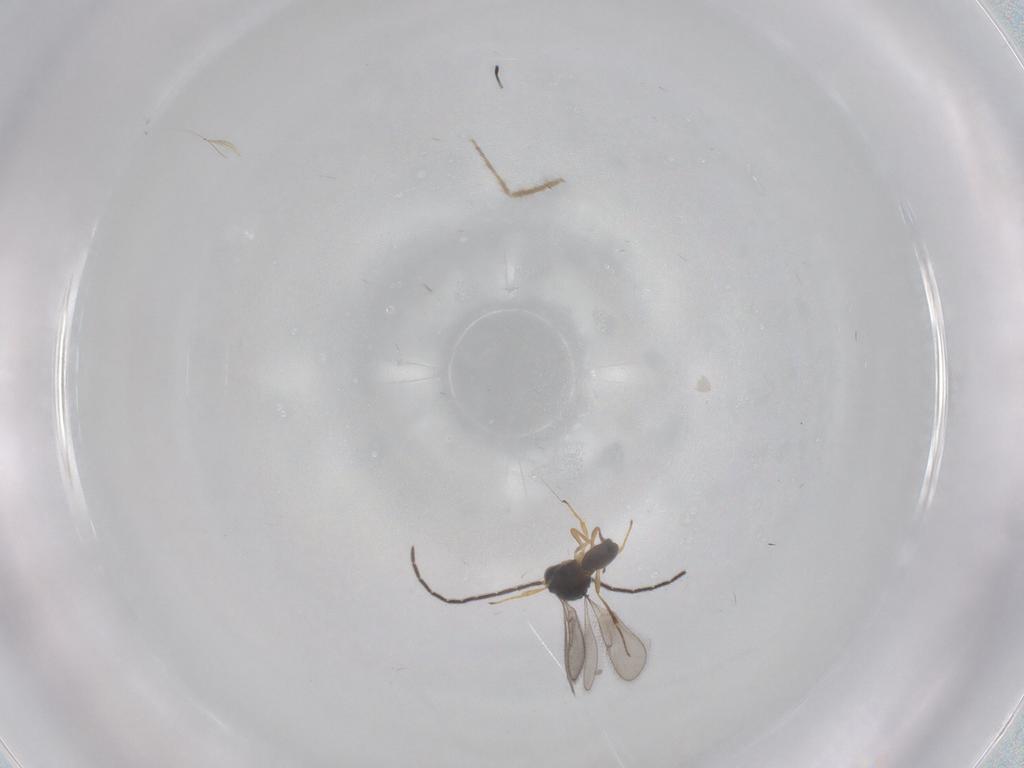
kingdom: Animalia
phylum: Arthropoda
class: Insecta
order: Hymenoptera
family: Scelionidae
